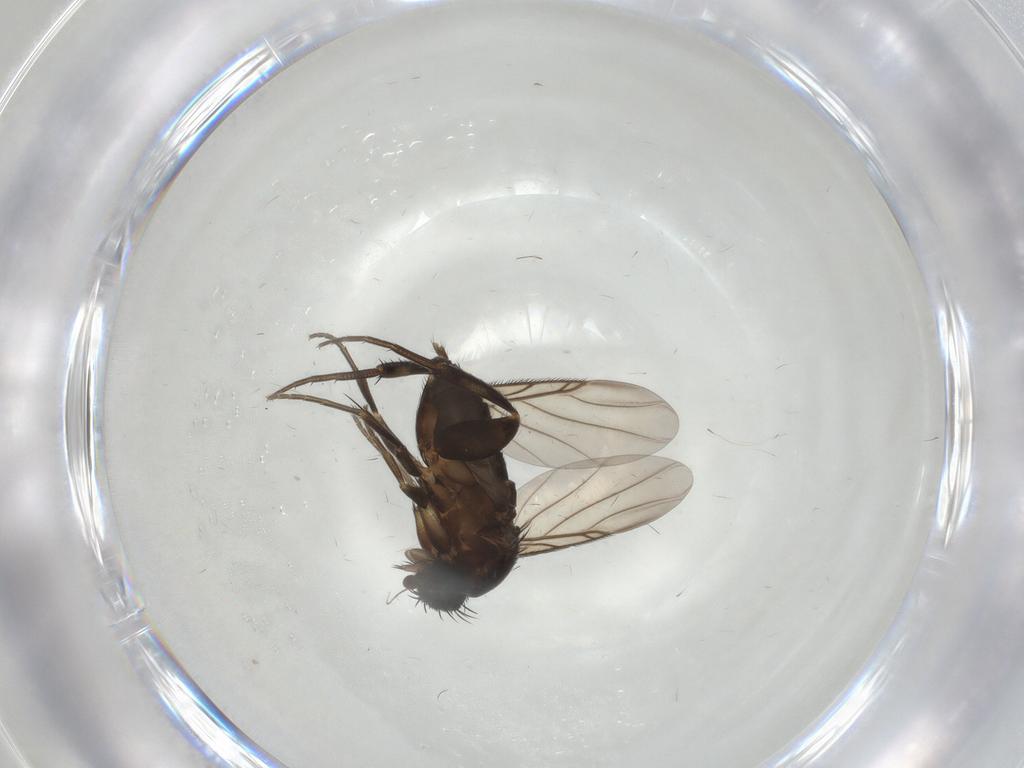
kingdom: Animalia
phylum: Arthropoda
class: Insecta
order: Diptera
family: Phoridae
